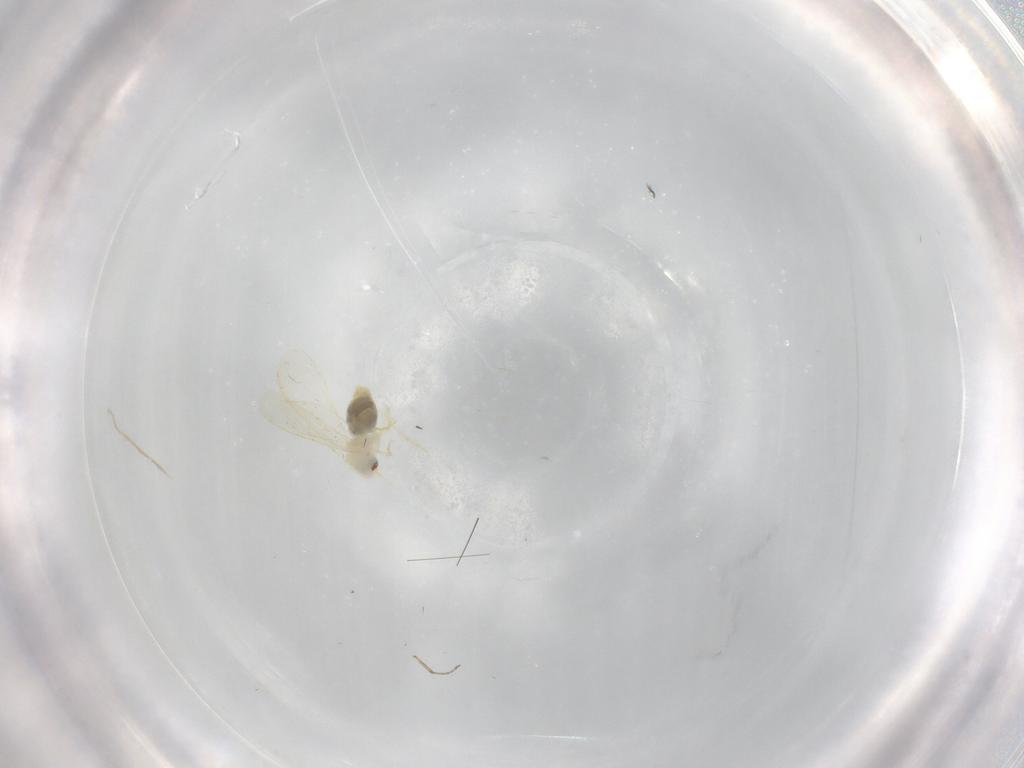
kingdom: Animalia
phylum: Arthropoda
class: Insecta
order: Hemiptera
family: Aleyrodidae
